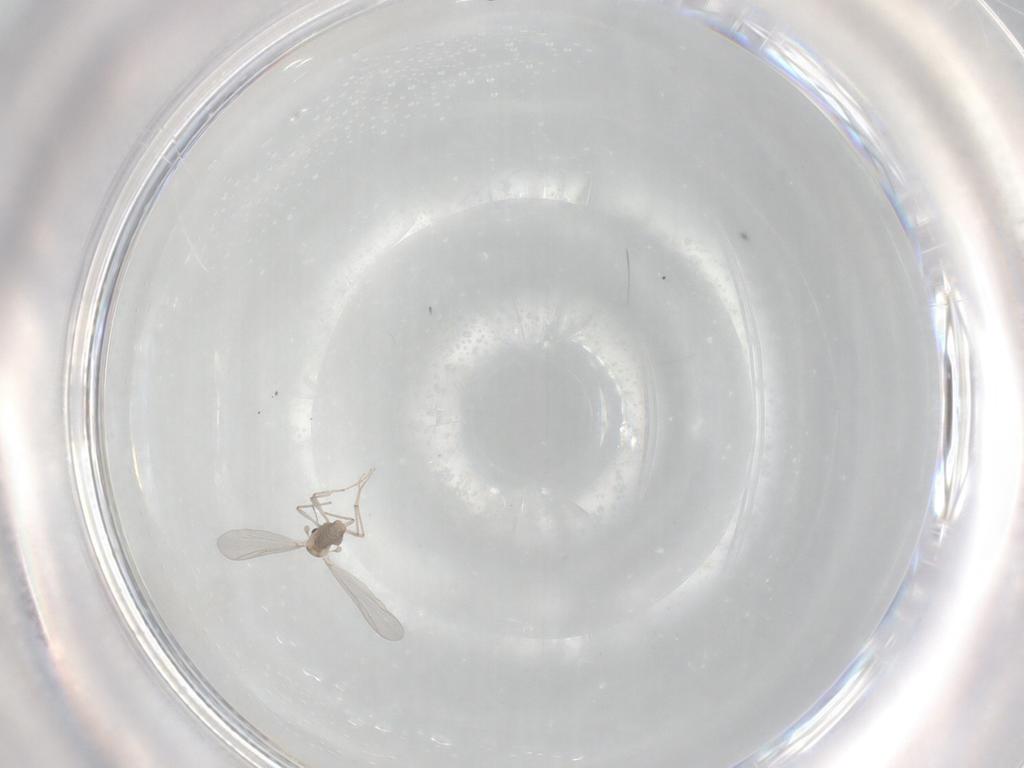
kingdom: Animalia
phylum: Arthropoda
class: Insecta
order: Diptera
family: Chironomidae
